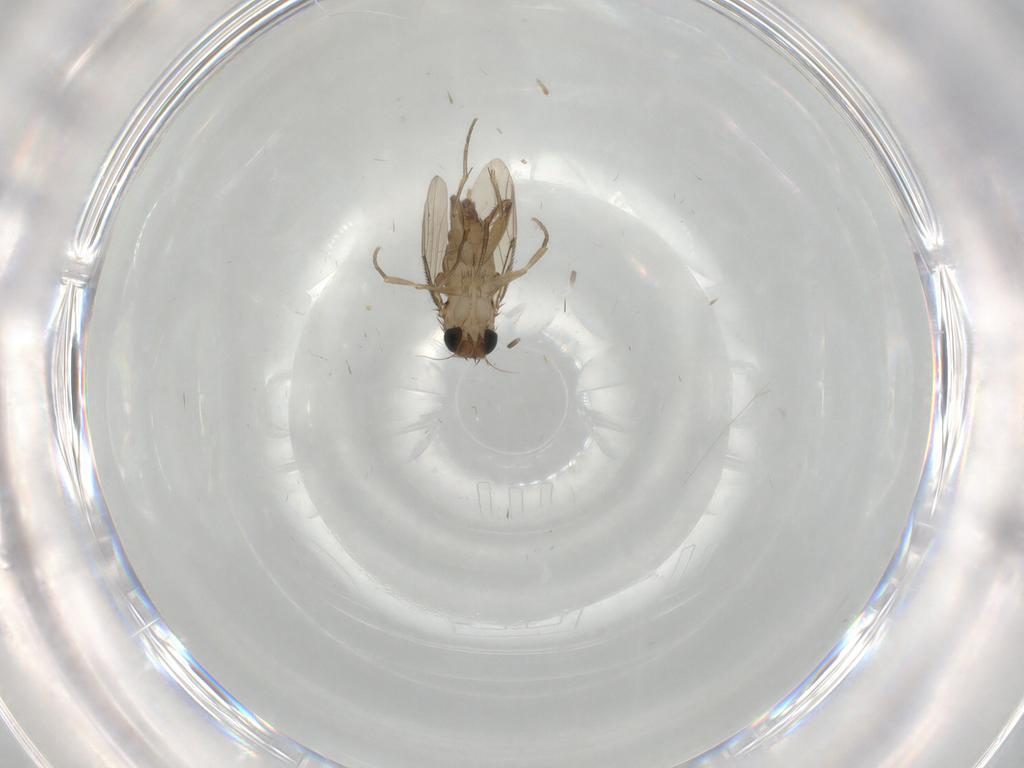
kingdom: Animalia
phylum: Arthropoda
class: Insecta
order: Diptera
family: Phoridae
